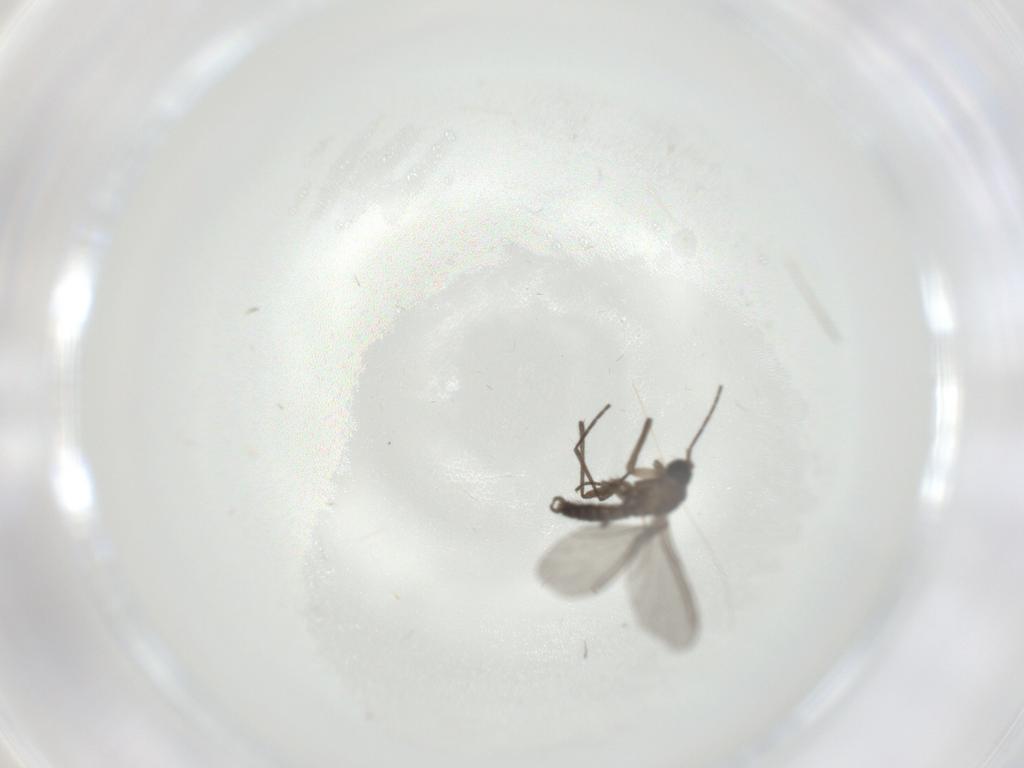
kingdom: Animalia
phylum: Arthropoda
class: Insecta
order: Diptera
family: Sciaridae
